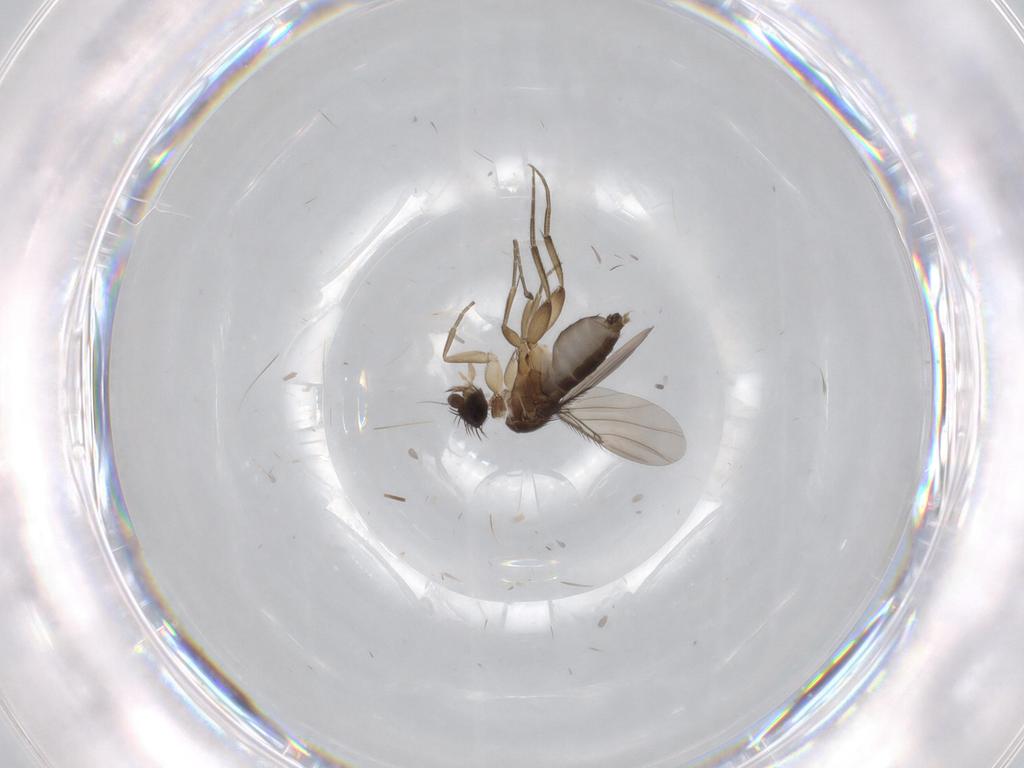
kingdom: Animalia
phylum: Arthropoda
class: Insecta
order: Diptera
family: Phoridae
